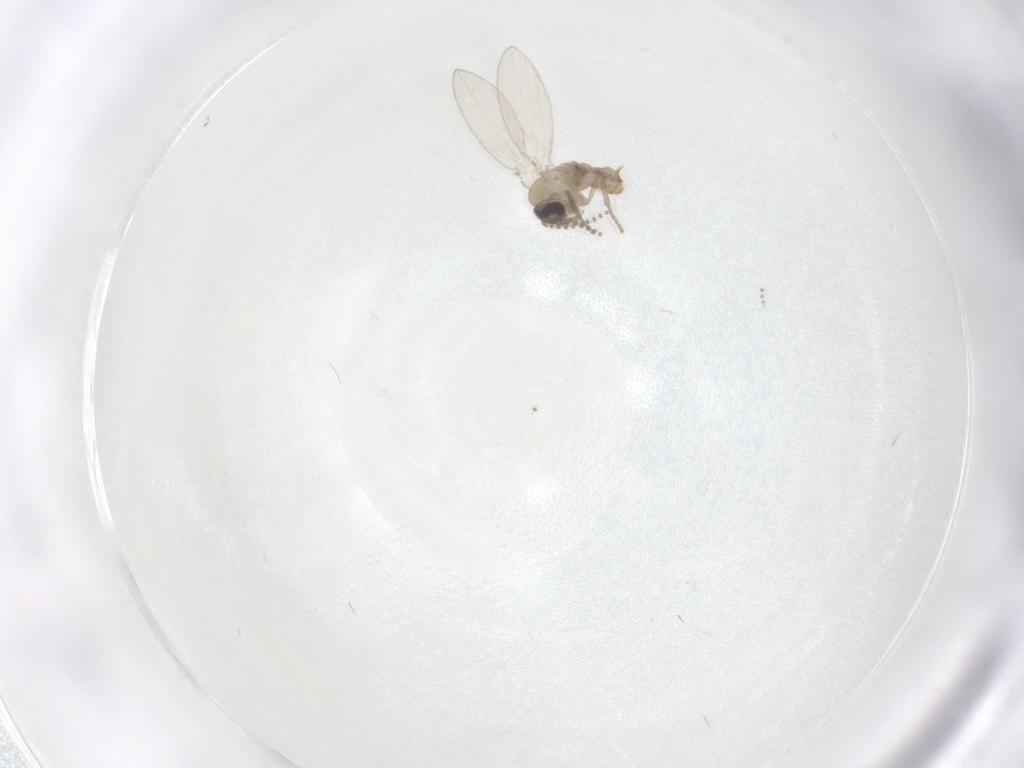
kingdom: Animalia
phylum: Arthropoda
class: Insecta
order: Diptera
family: Psychodidae
